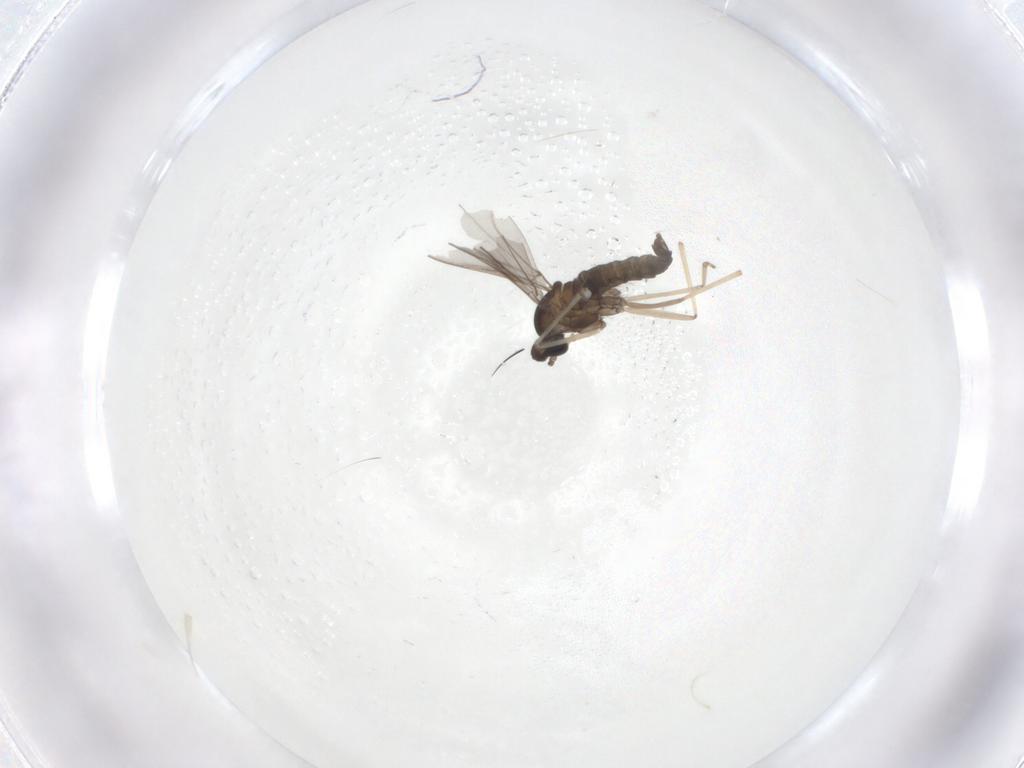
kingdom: Animalia
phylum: Arthropoda
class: Insecta
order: Diptera
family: Cecidomyiidae
